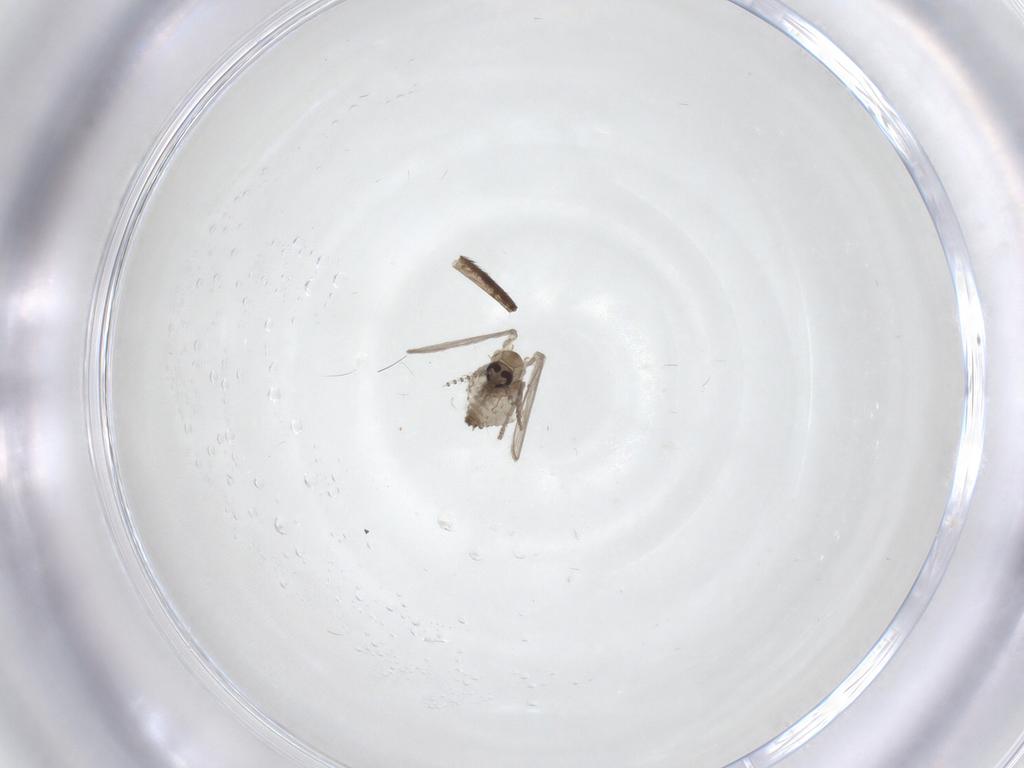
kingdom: Animalia
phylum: Arthropoda
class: Insecta
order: Diptera
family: Psychodidae
